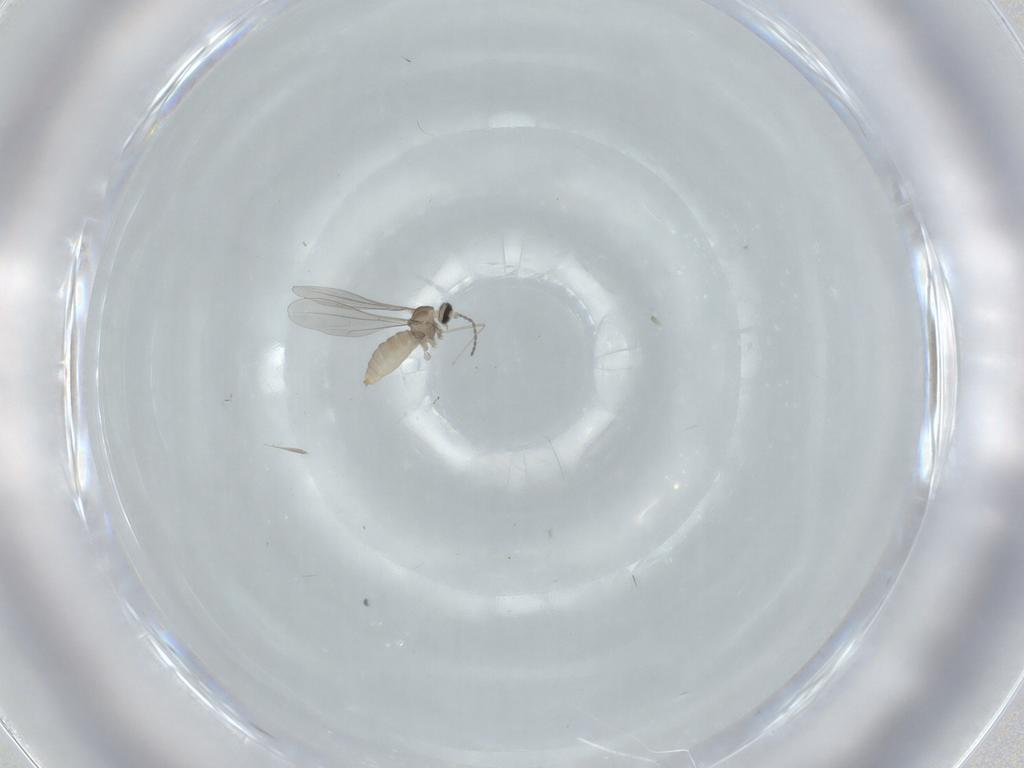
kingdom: Animalia
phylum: Arthropoda
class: Insecta
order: Diptera
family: Cecidomyiidae
